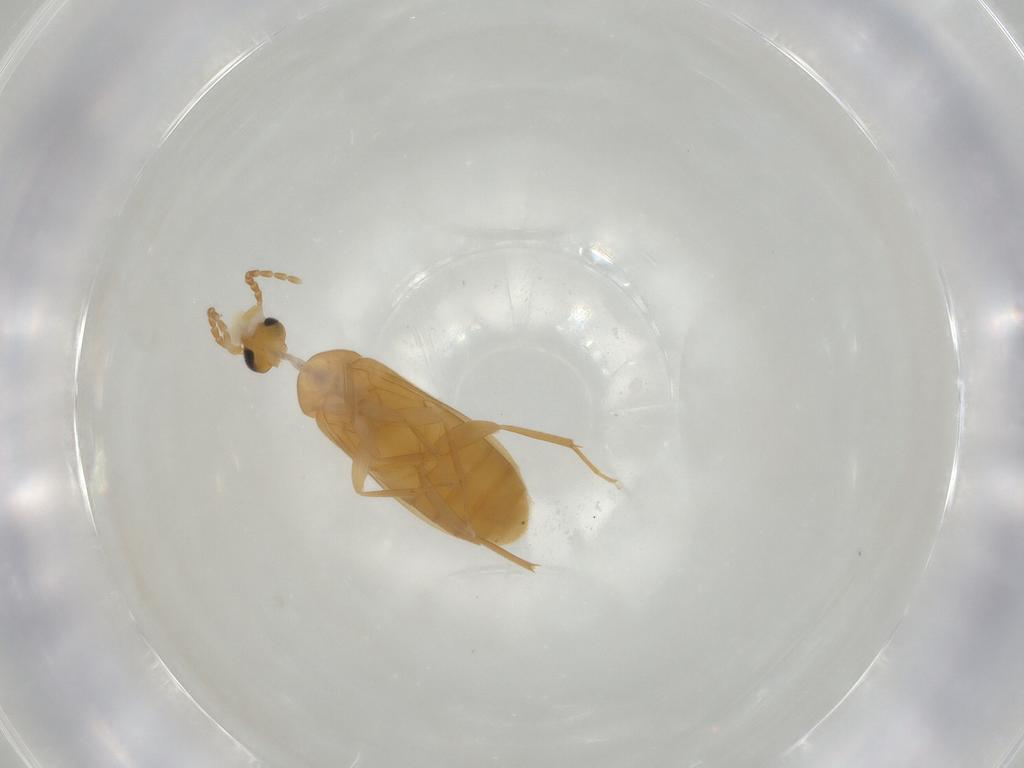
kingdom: Animalia
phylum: Arthropoda
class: Insecta
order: Coleoptera
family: Scraptiidae
